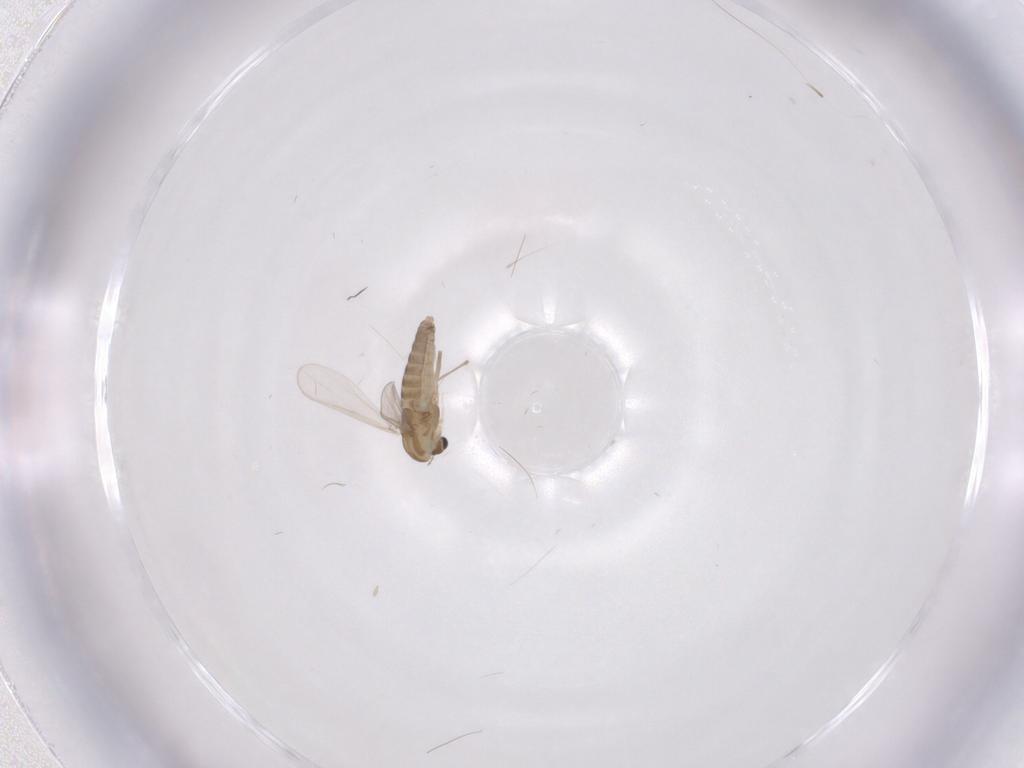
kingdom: Animalia
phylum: Arthropoda
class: Insecta
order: Diptera
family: Chironomidae
